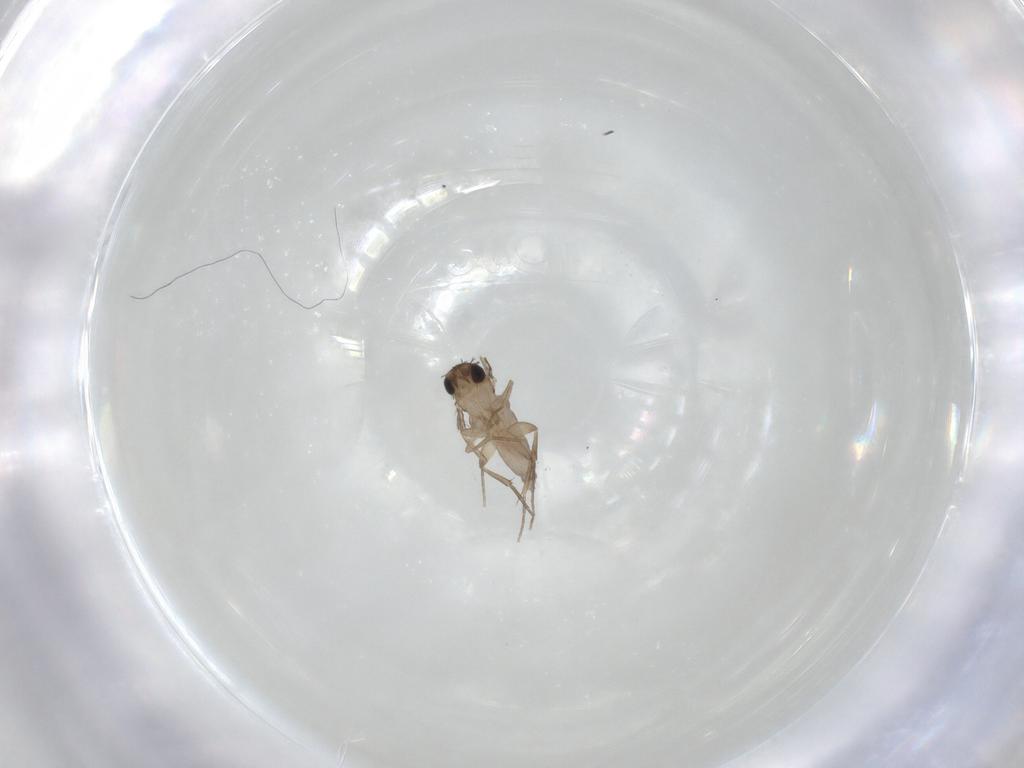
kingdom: Animalia
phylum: Arthropoda
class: Insecta
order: Diptera
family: Phoridae
